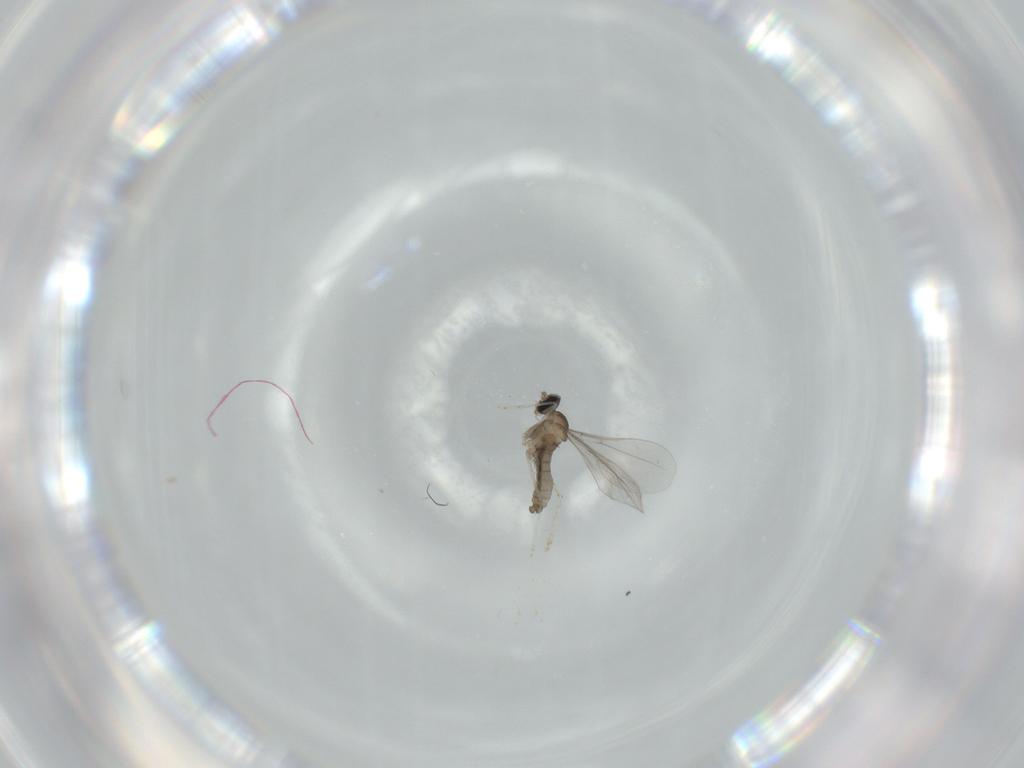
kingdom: Animalia
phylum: Arthropoda
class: Insecta
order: Diptera
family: Cecidomyiidae
